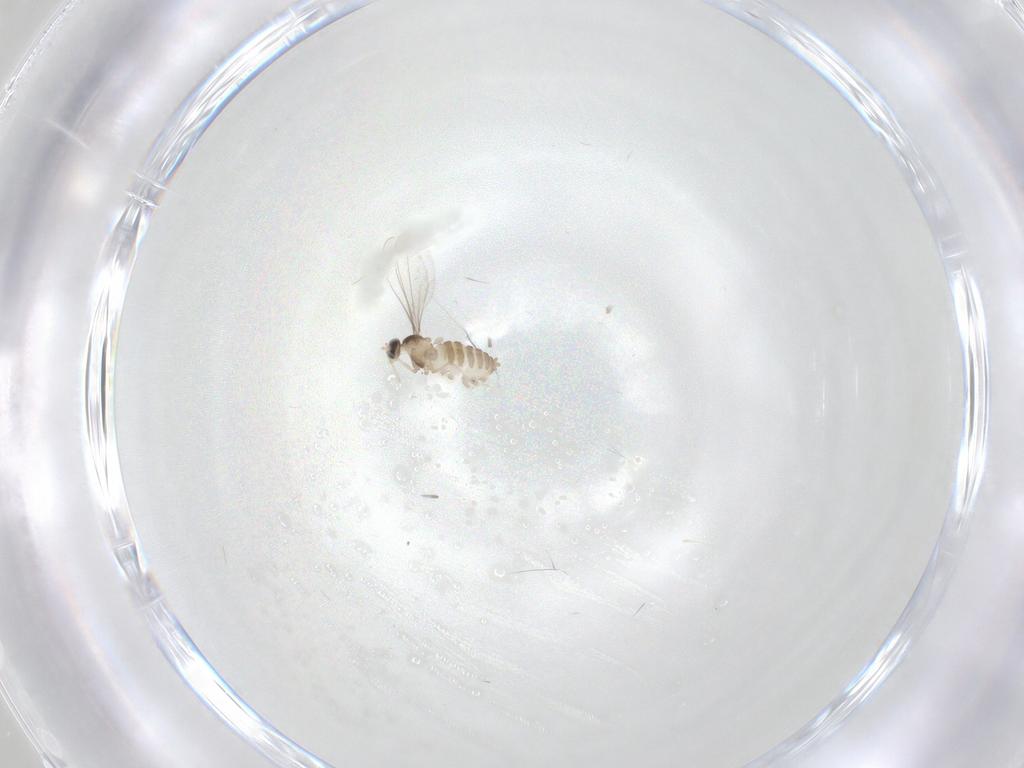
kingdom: Animalia
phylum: Arthropoda
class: Insecta
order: Diptera
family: Cecidomyiidae
